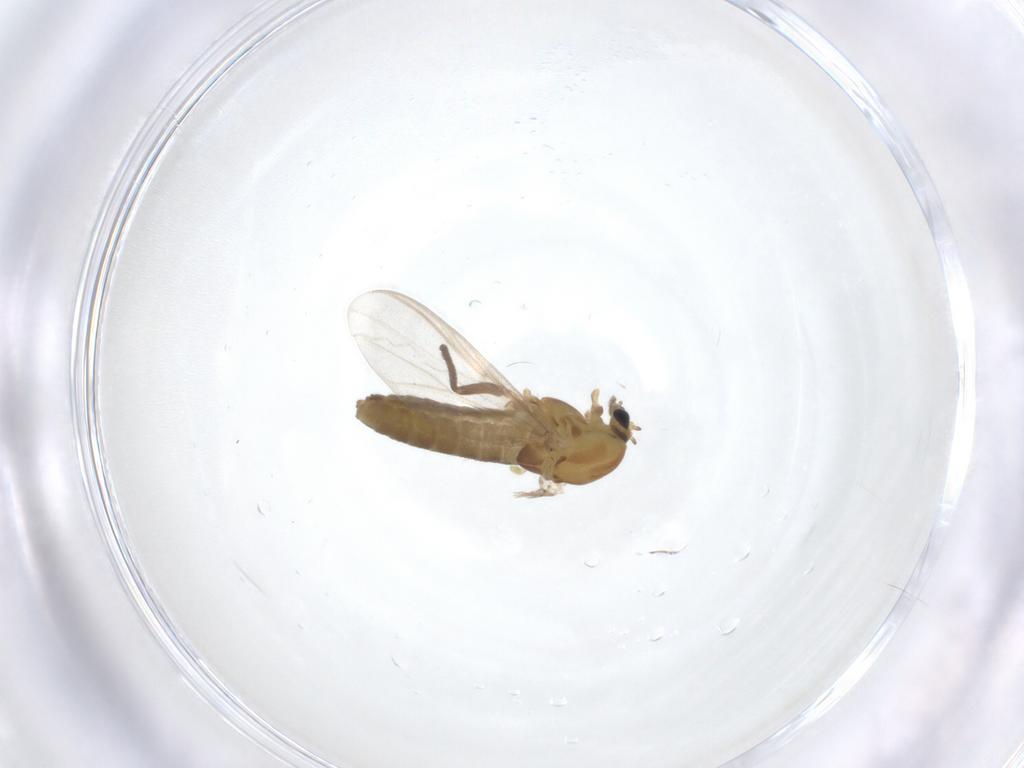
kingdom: Animalia
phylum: Arthropoda
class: Insecta
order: Diptera
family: Chironomidae
